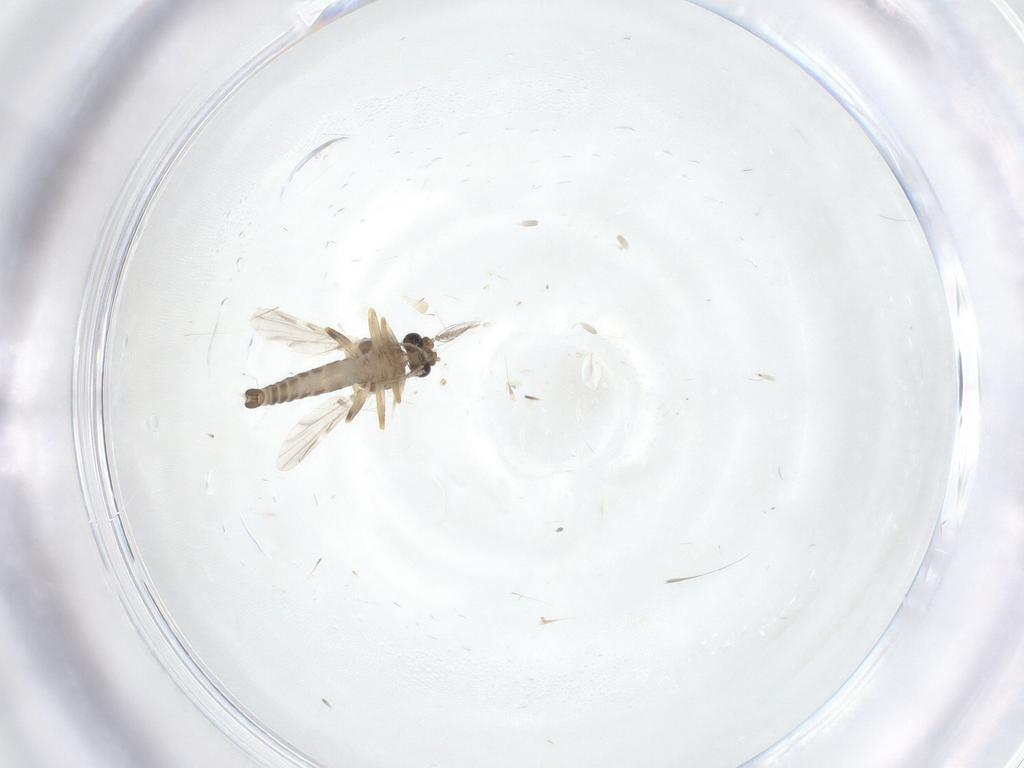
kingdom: Animalia
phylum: Arthropoda
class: Insecta
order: Diptera
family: Ceratopogonidae
